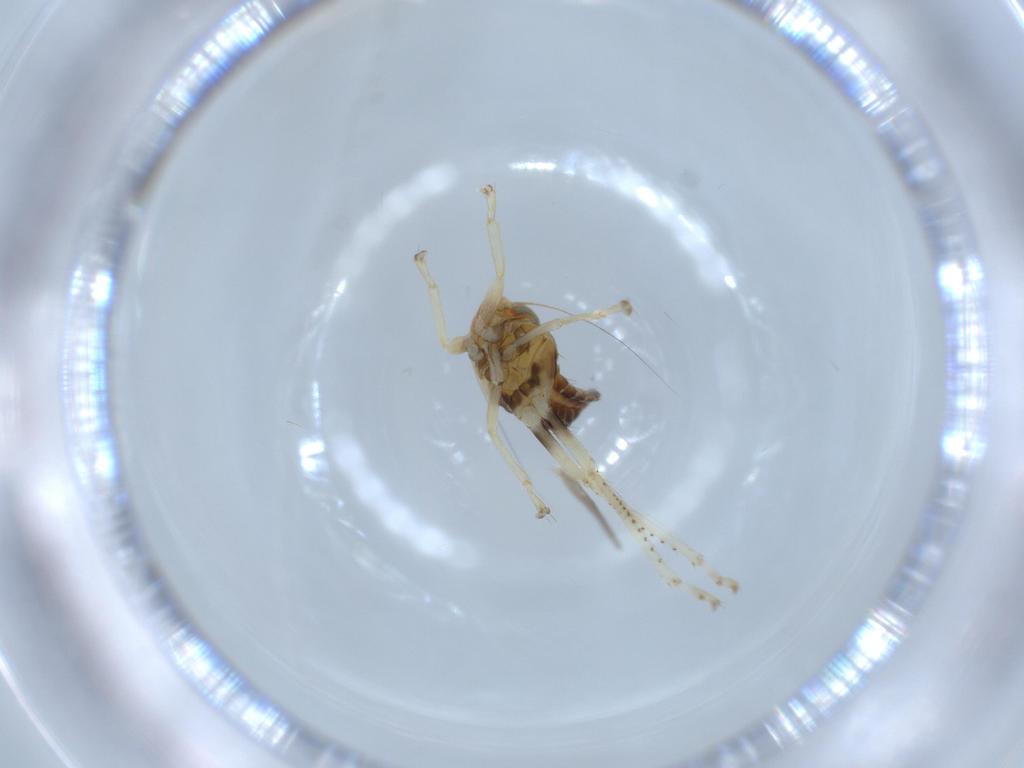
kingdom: Animalia
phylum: Arthropoda
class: Insecta
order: Hemiptera
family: Cicadellidae
